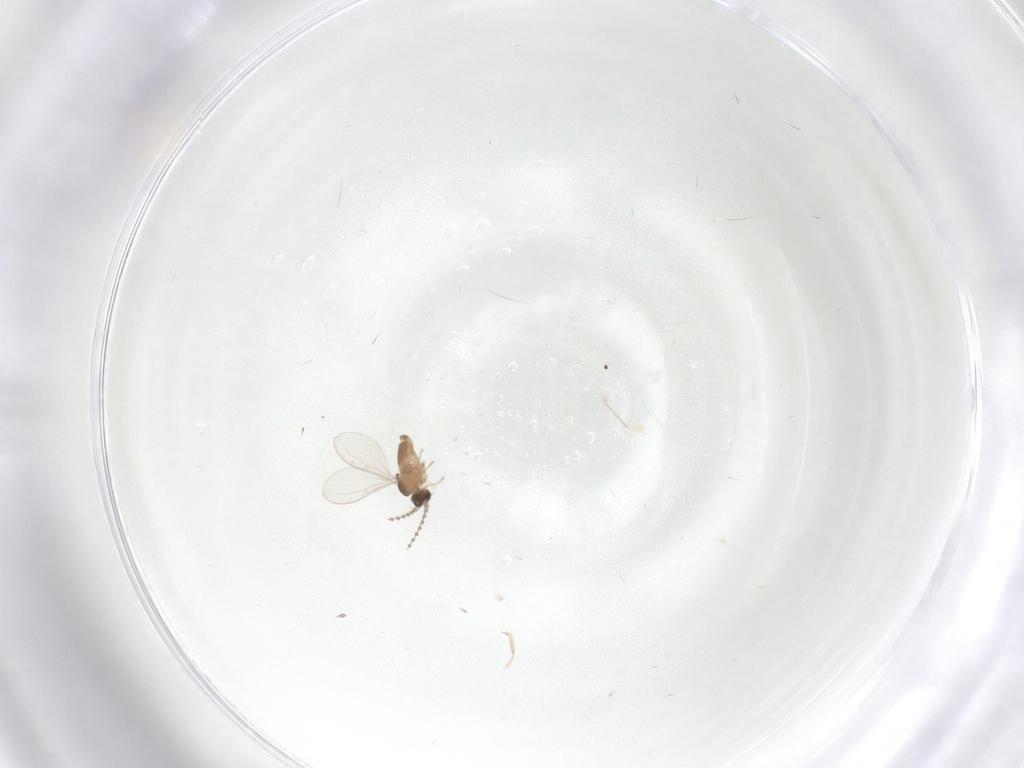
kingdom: Animalia
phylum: Arthropoda
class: Insecta
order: Diptera
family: Cecidomyiidae
